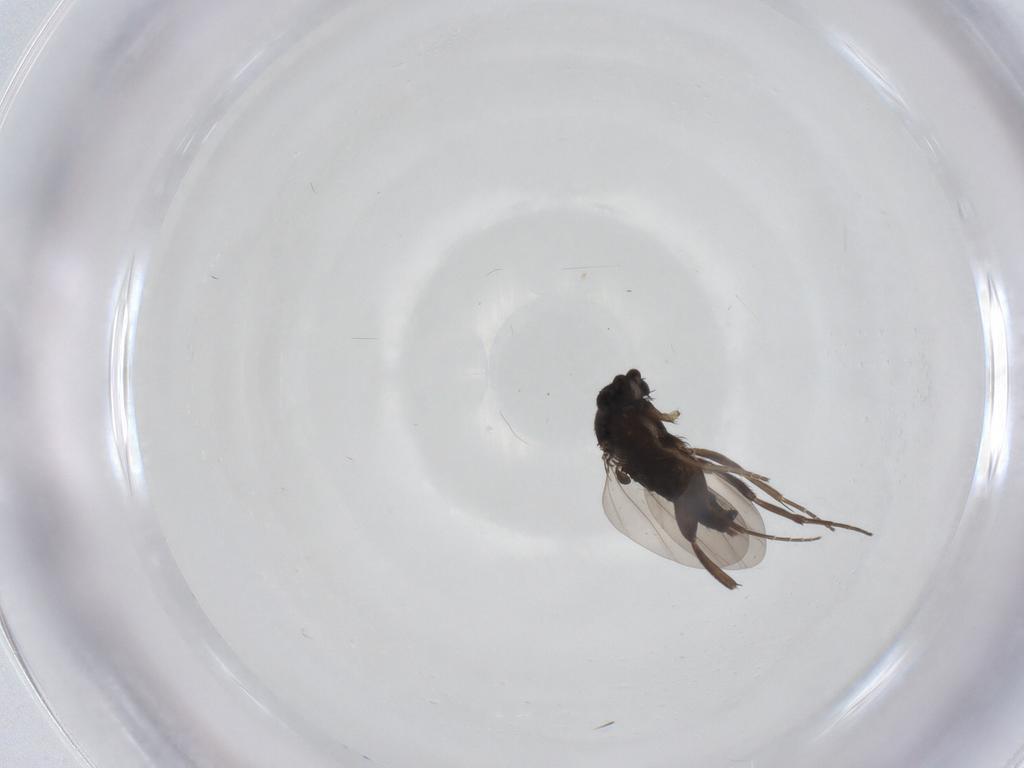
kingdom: Animalia
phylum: Arthropoda
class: Insecta
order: Diptera
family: Phoridae
